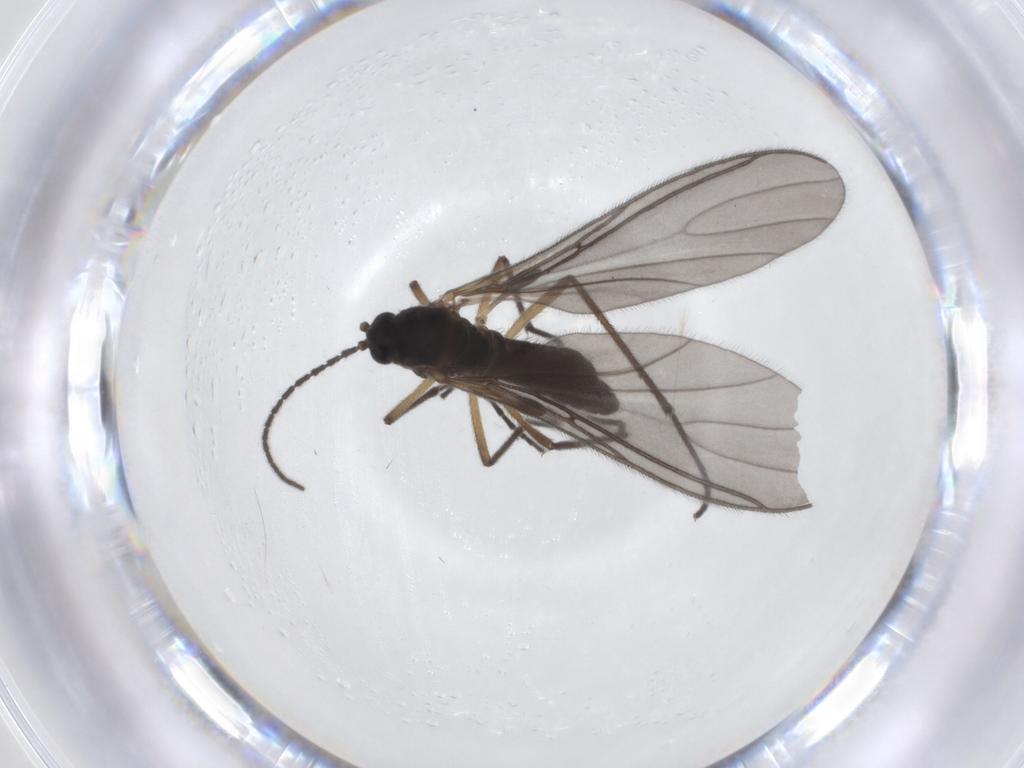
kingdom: Animalia
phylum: Arthropoda
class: Insecta
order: Diptera
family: Sciaridae
